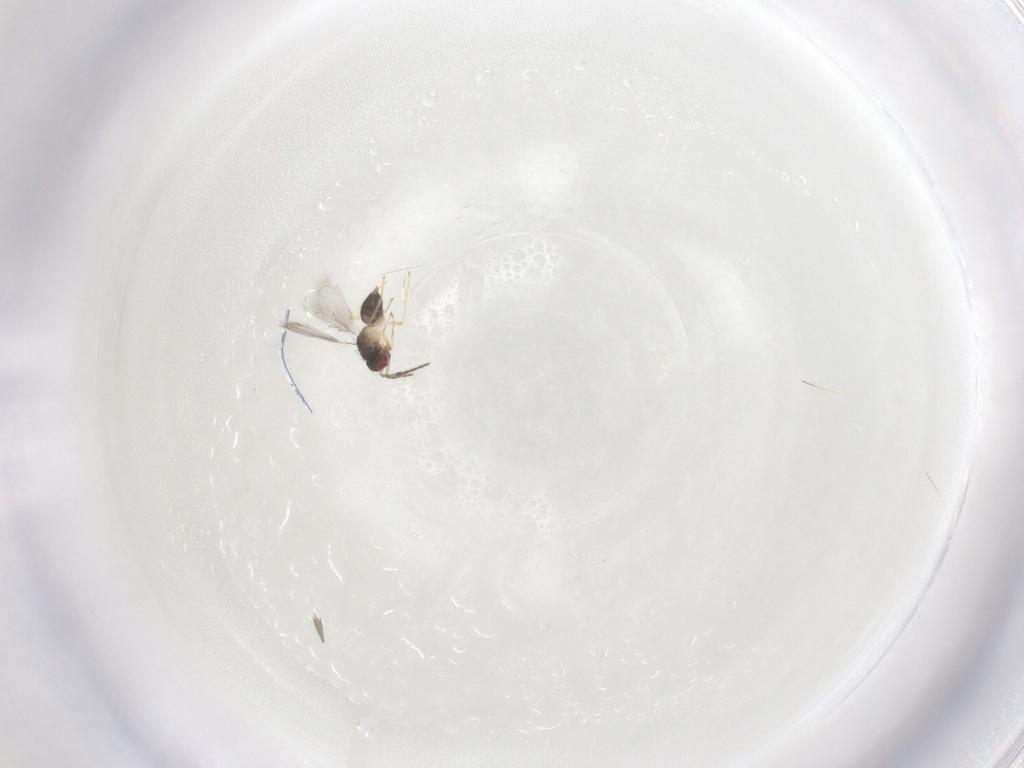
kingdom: Animalia
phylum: Arthropoda
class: Insecta
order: Hymenoptera
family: Eulophidae
